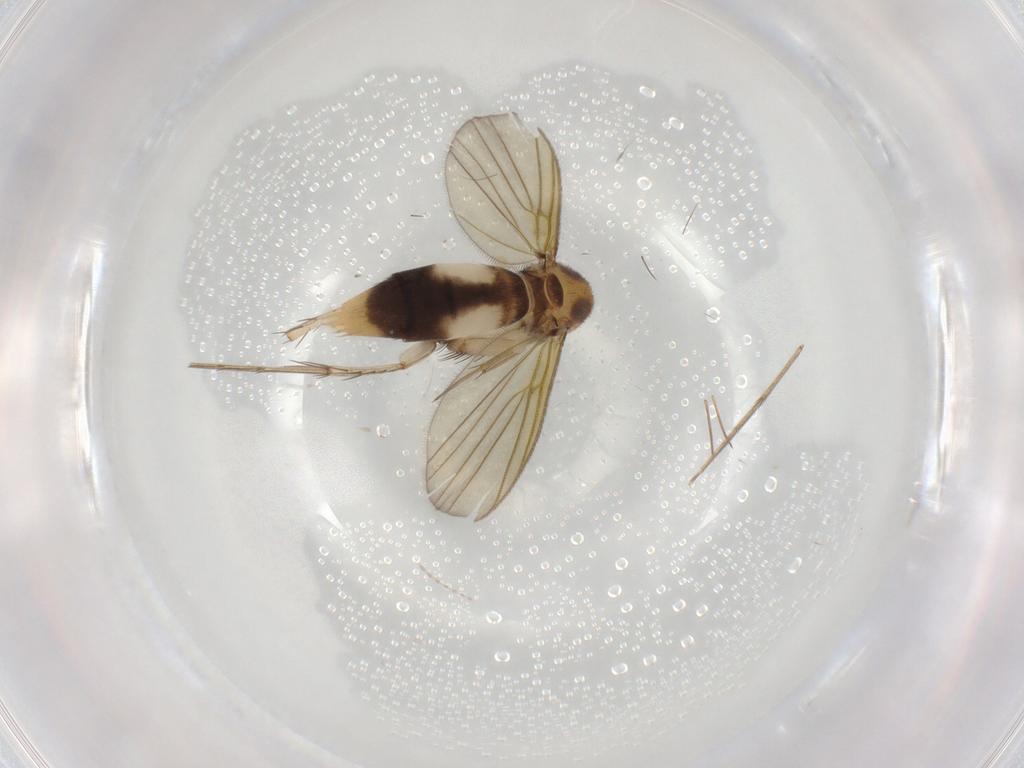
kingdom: Animalia
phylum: Arthropoda
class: Insecta
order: Diptera
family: Mycetophilidae
